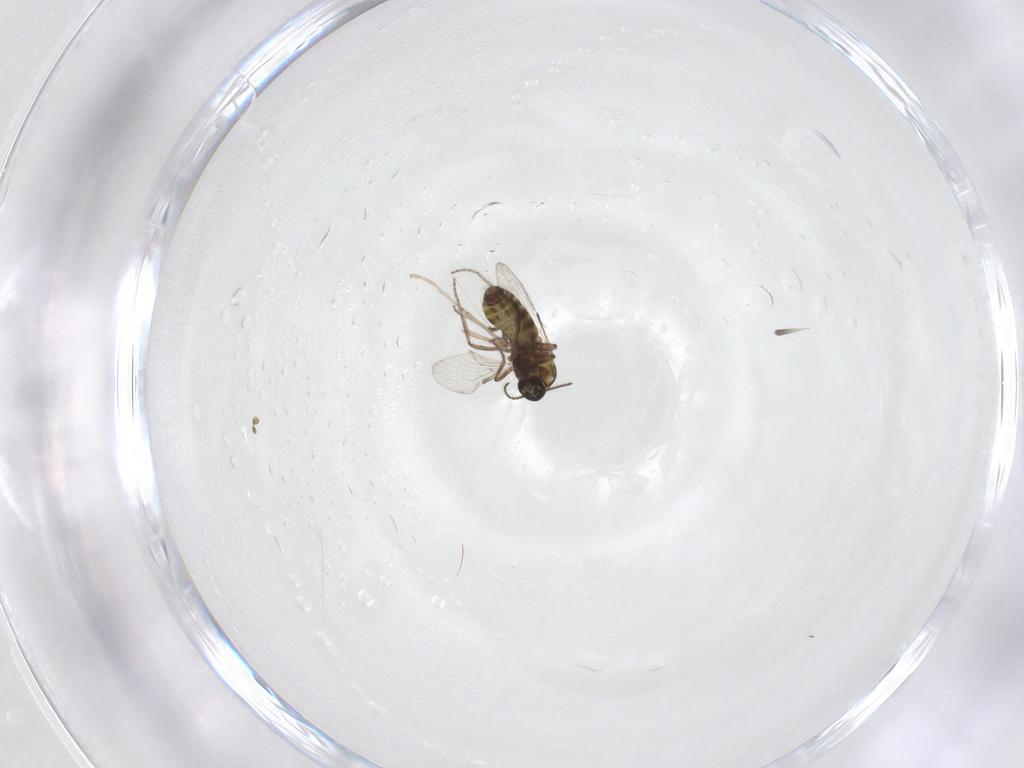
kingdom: Animalia
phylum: Arthropoda
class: Insecta
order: Diptera
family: Ceratopogonidae
